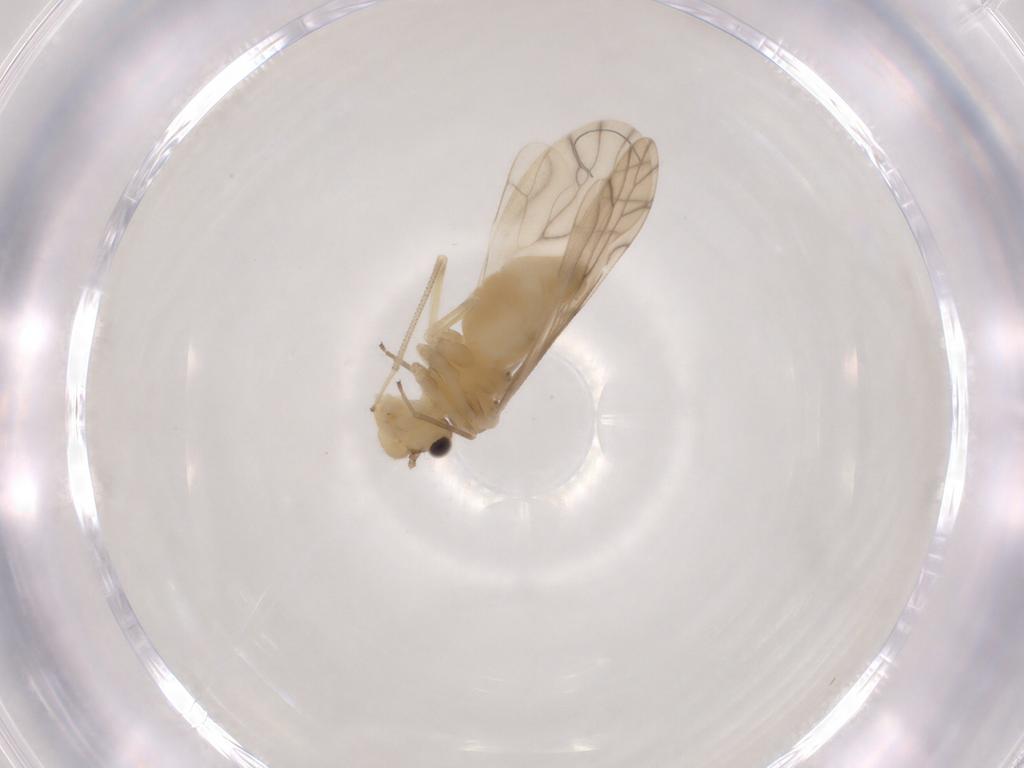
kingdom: Animalia
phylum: Arthropoda
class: Insecta
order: Psocodea
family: Caeciliusidae
